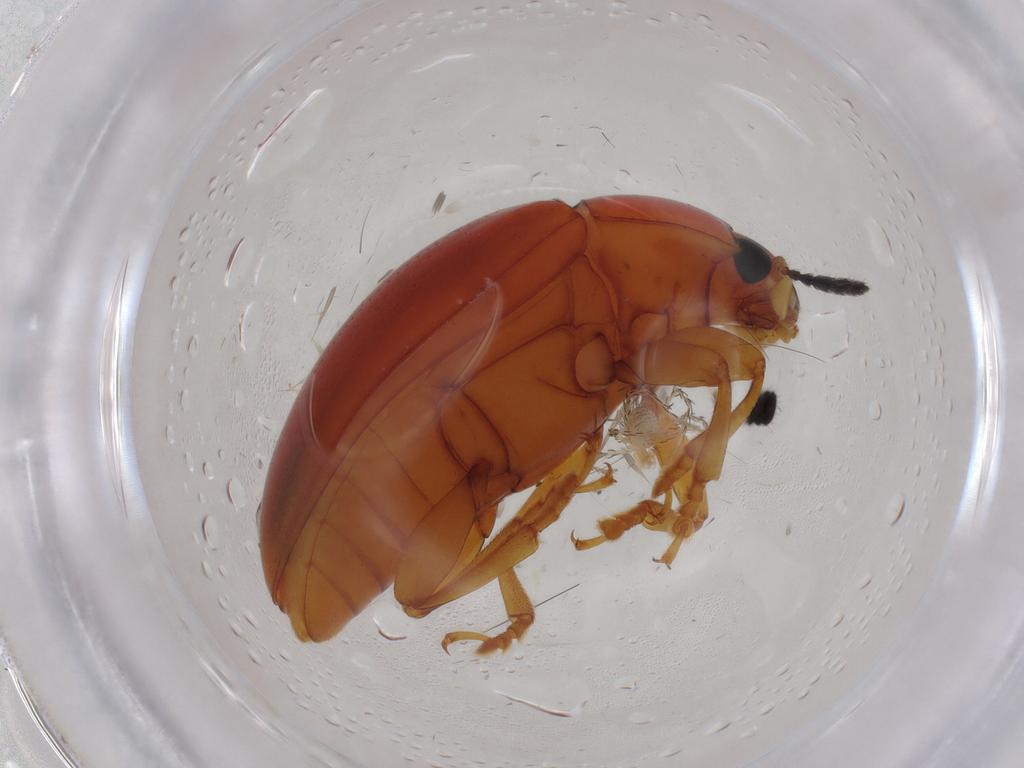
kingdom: Animalia
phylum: Arthropoda
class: Insecta
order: Coleoptera
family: Erotylidae
